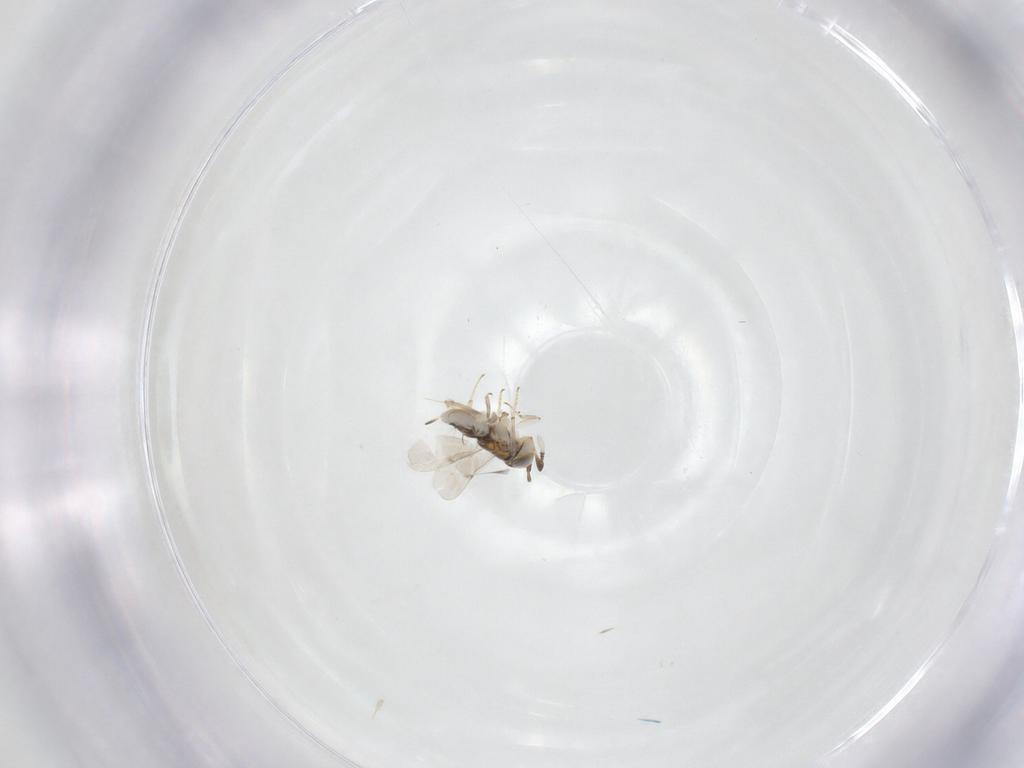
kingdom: Animalia
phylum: Arthropoda
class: Insecta
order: Hymenoptera
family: Encyrtidae
